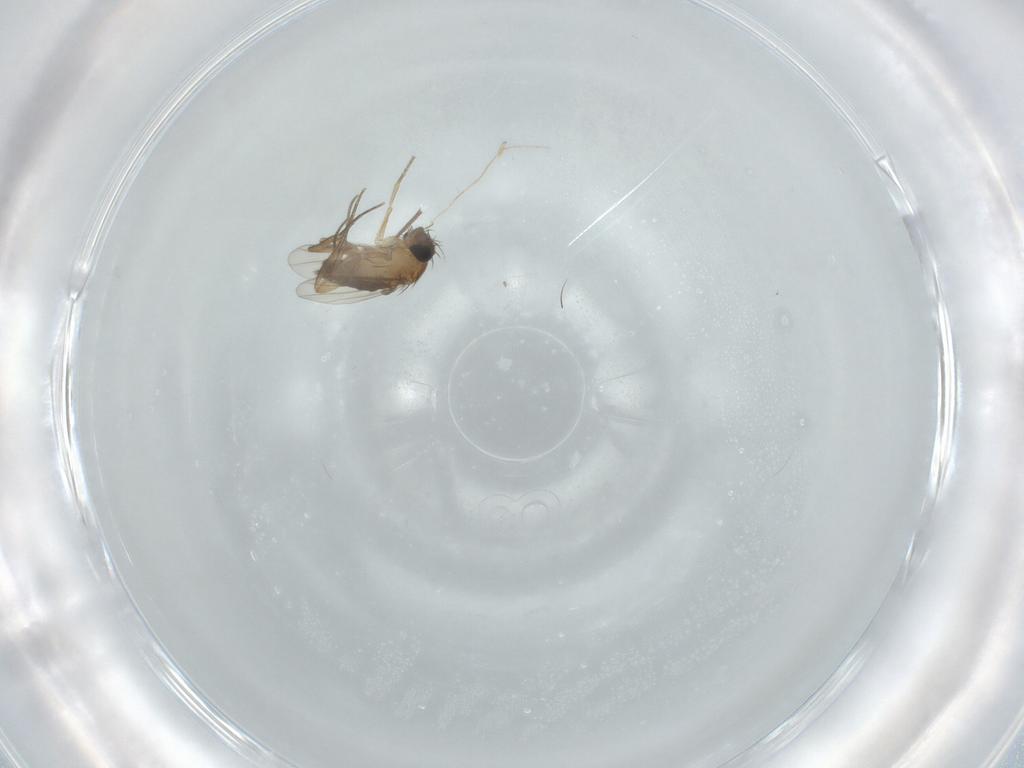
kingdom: Animalia
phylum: Arthropoda
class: Insecta
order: Diptera
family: Phoridae
